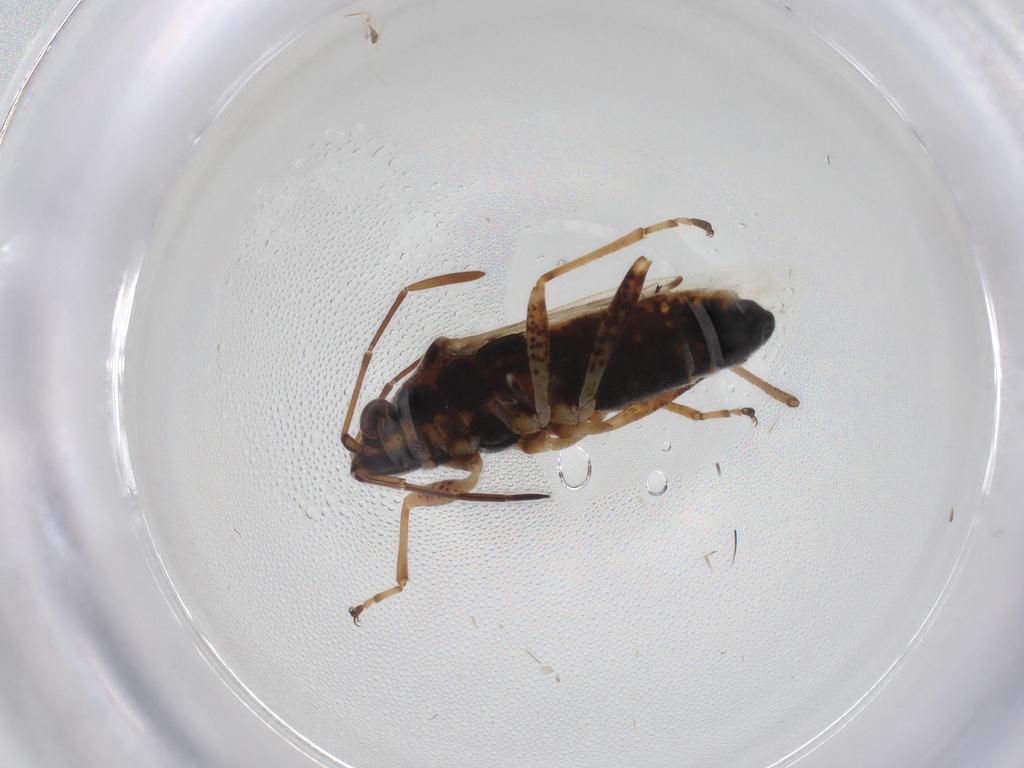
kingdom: Animalia
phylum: Arthropoda
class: Insecta
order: Hemiptera
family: Lygaeidae
